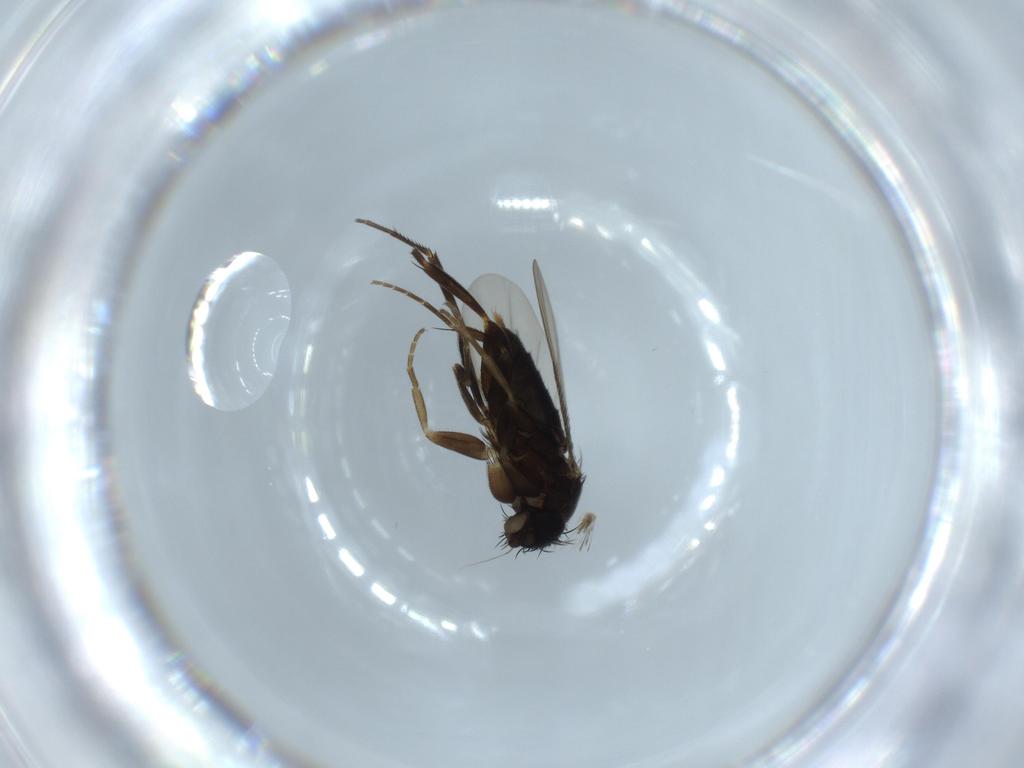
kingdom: Animalia
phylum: Arthropoda
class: Insecta
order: Diptera
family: Phoridae
